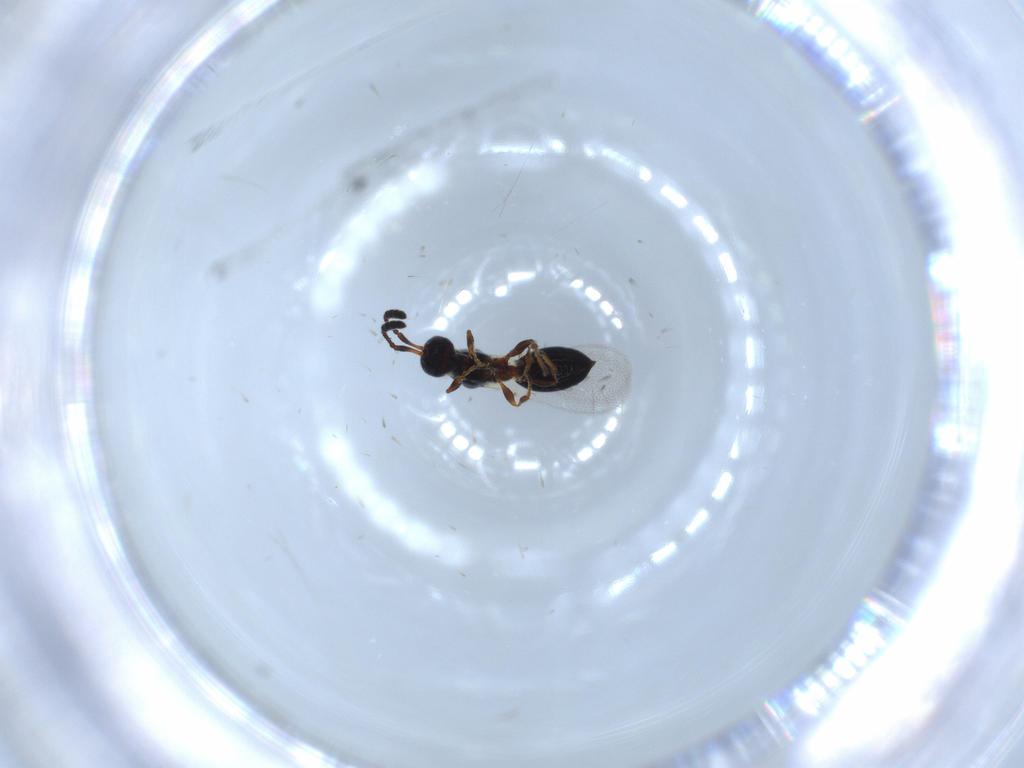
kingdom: Animalia
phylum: Arthropoda
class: Insecta
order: Hymenoptera
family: Diapriidae
